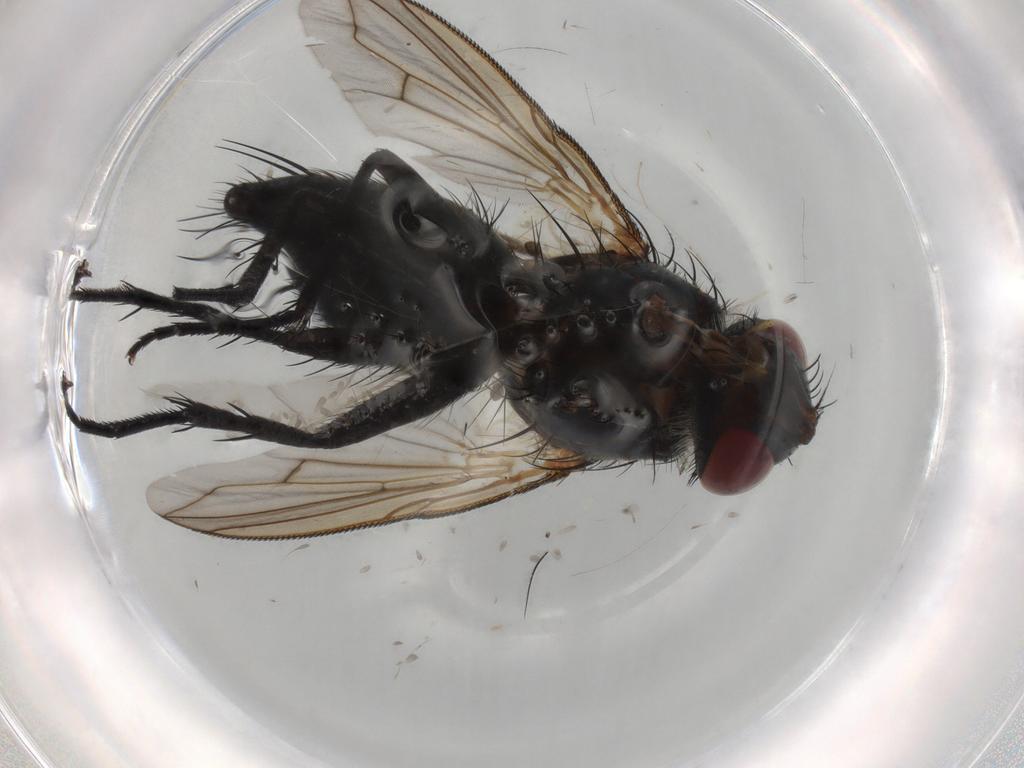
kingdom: Animalia
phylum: Arthropoda
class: Insecta
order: Diptera
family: Tachinidae
